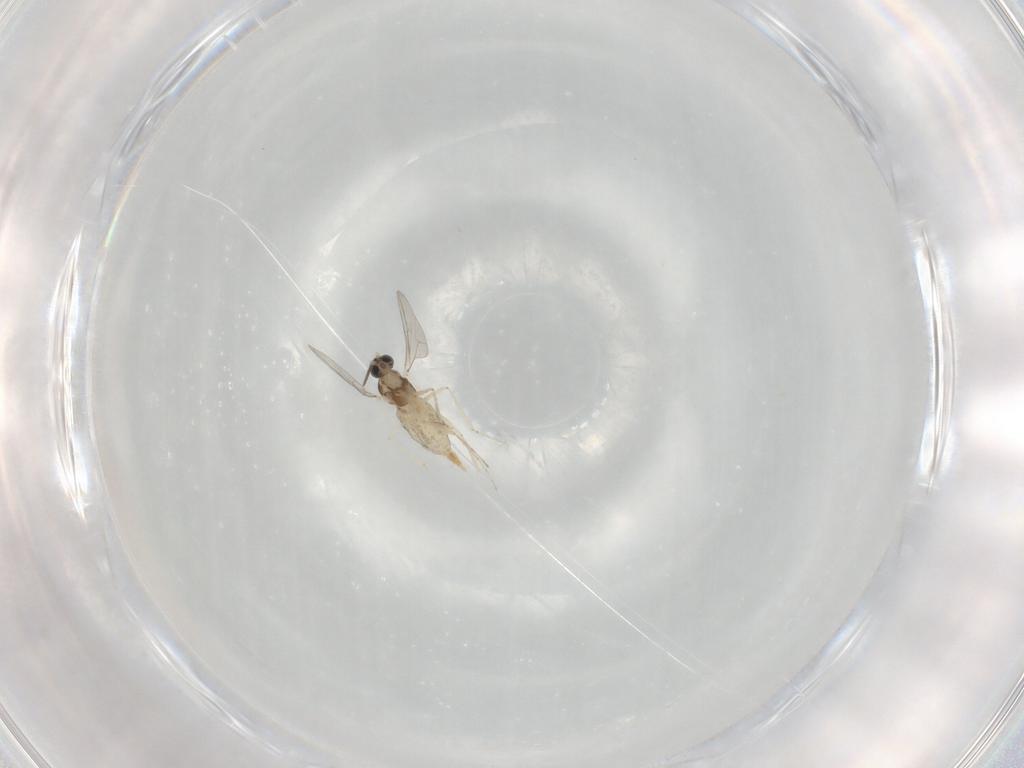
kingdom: Animalia
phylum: Arthropoda
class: Insecta
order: Diptera
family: Cecidomyiidae
